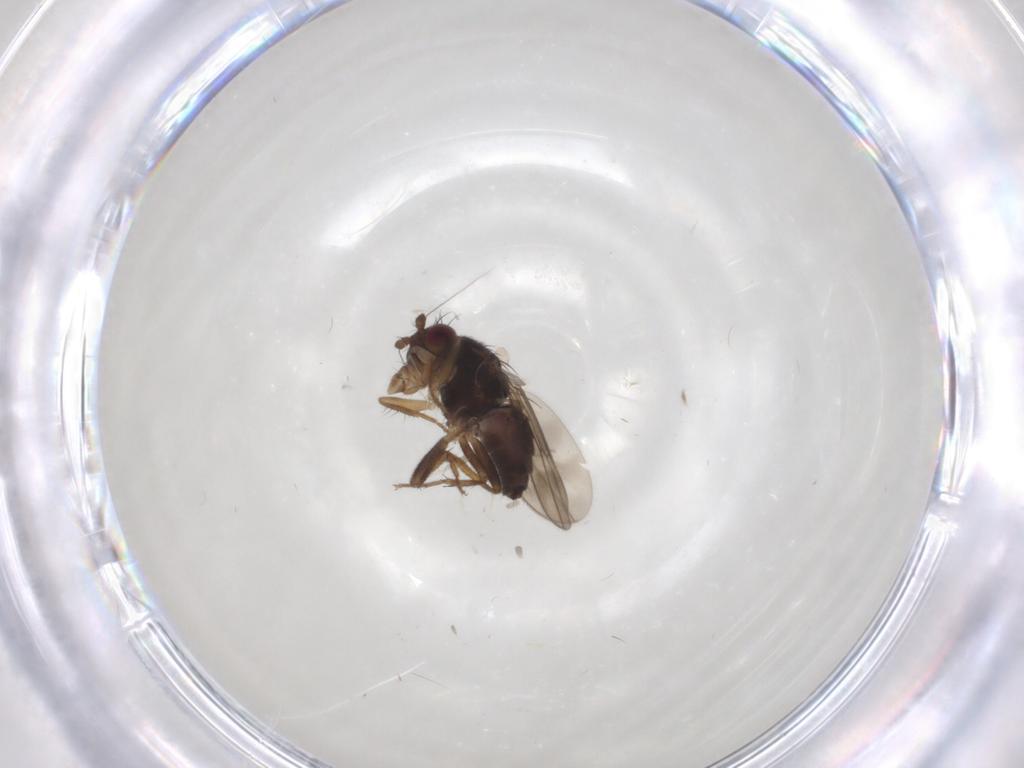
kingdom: Animalia
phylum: Arthropoda
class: Insecta
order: Diptera
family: Sphaeroceridae
